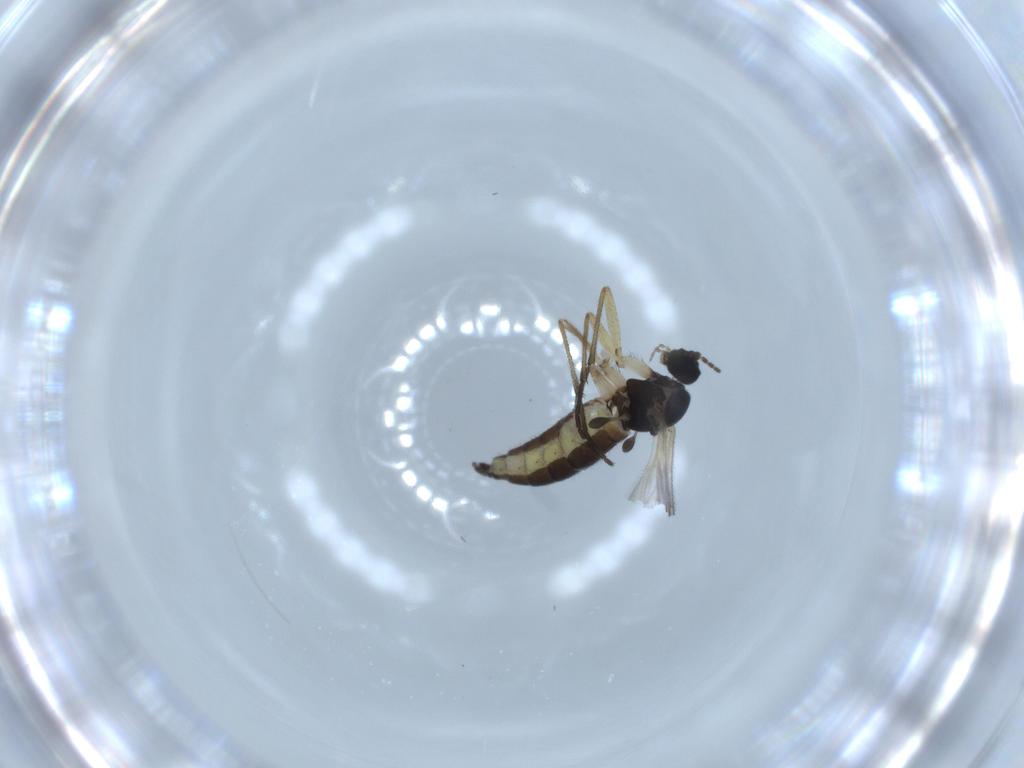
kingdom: Animalia
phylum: Arthropoda
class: Insecta
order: Diptera
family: Sciaridae
